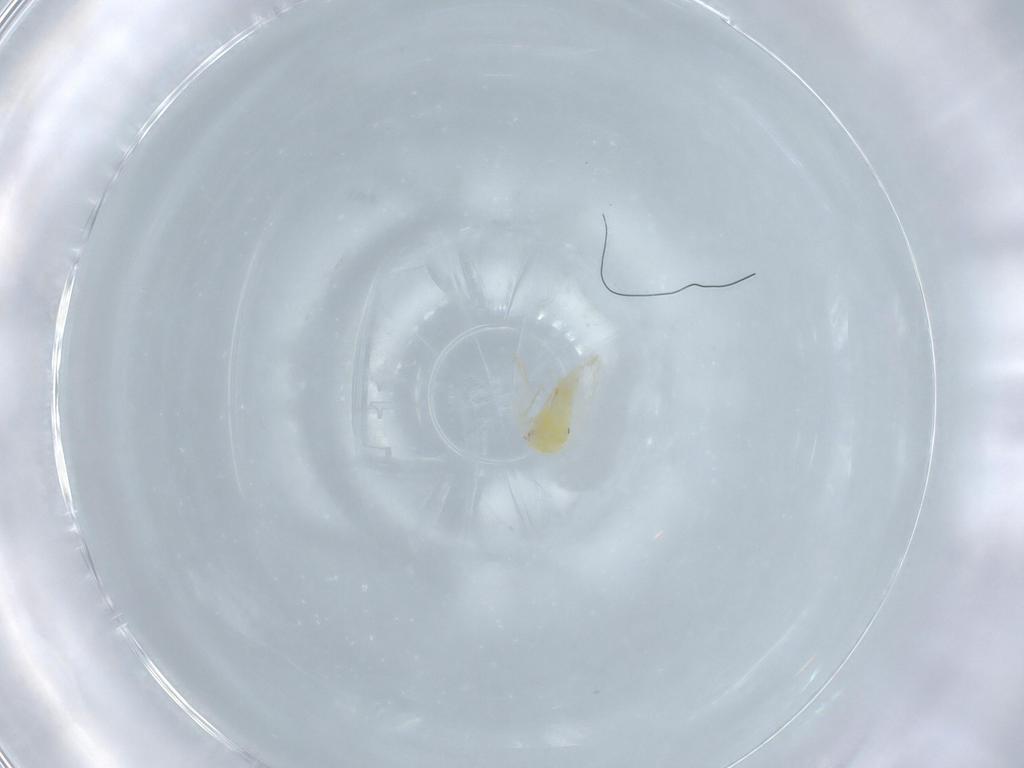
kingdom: Animalia
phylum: Arthropoda
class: Insecta
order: Hemiptera
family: Aleyrodidae
